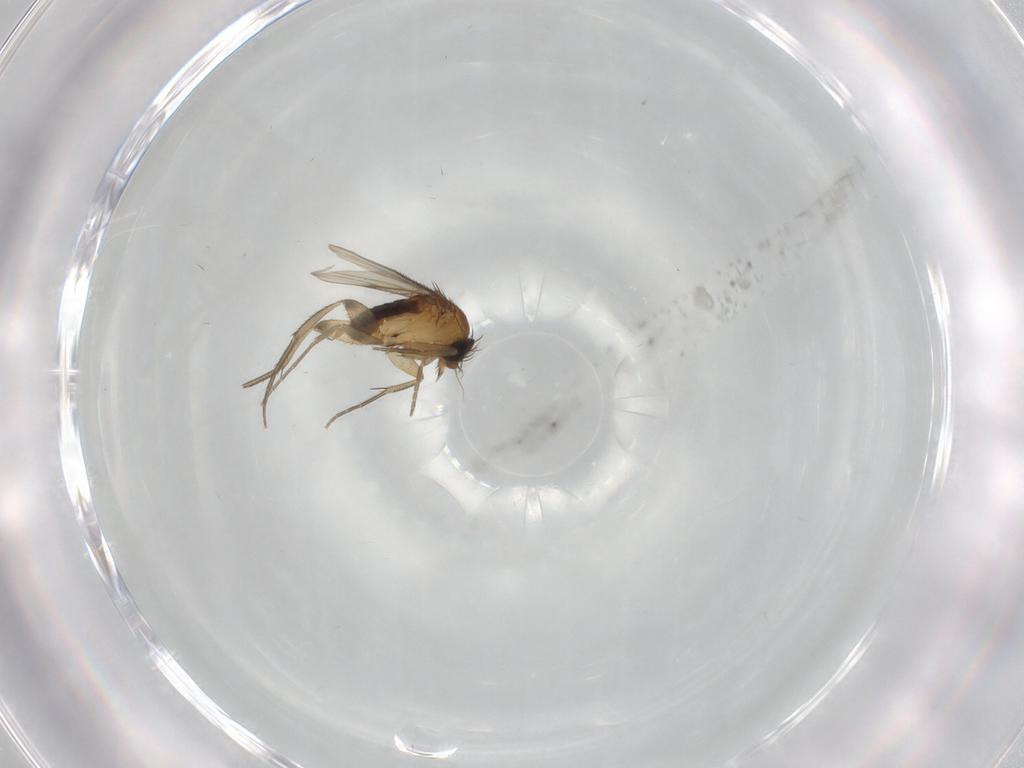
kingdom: Animalia
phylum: Arthropoda
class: Insecta
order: Diptera
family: Phoridae
